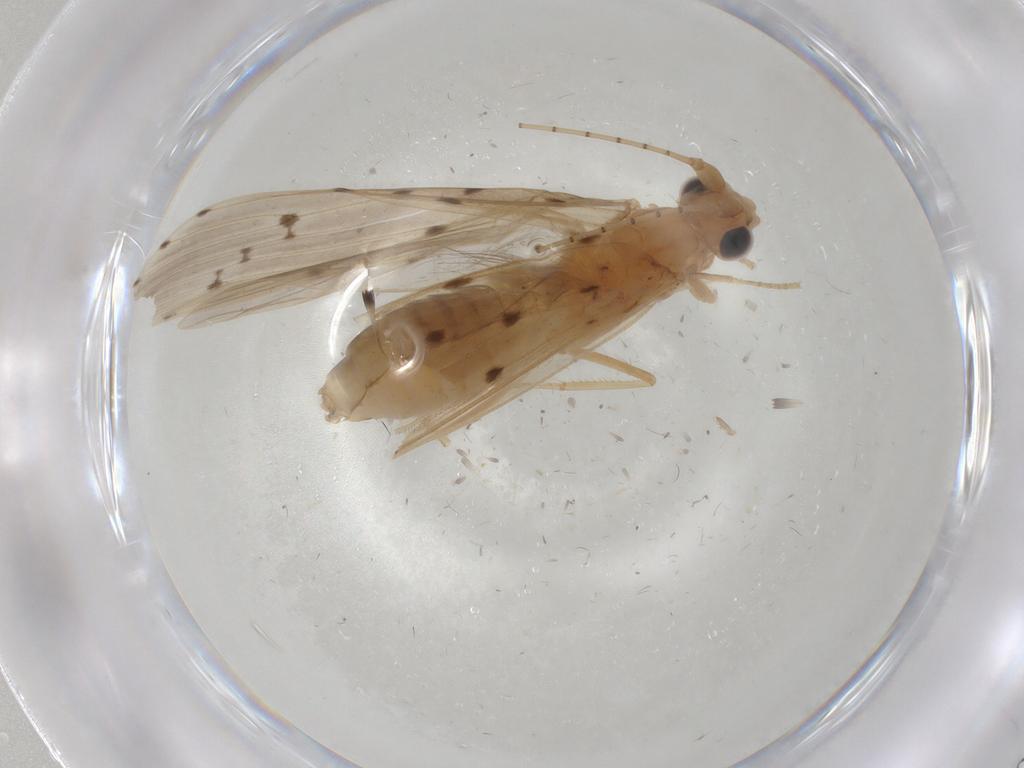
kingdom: Animalia
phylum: Arthropoda
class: Insecta
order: Trichoptera
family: Leptoceridae
